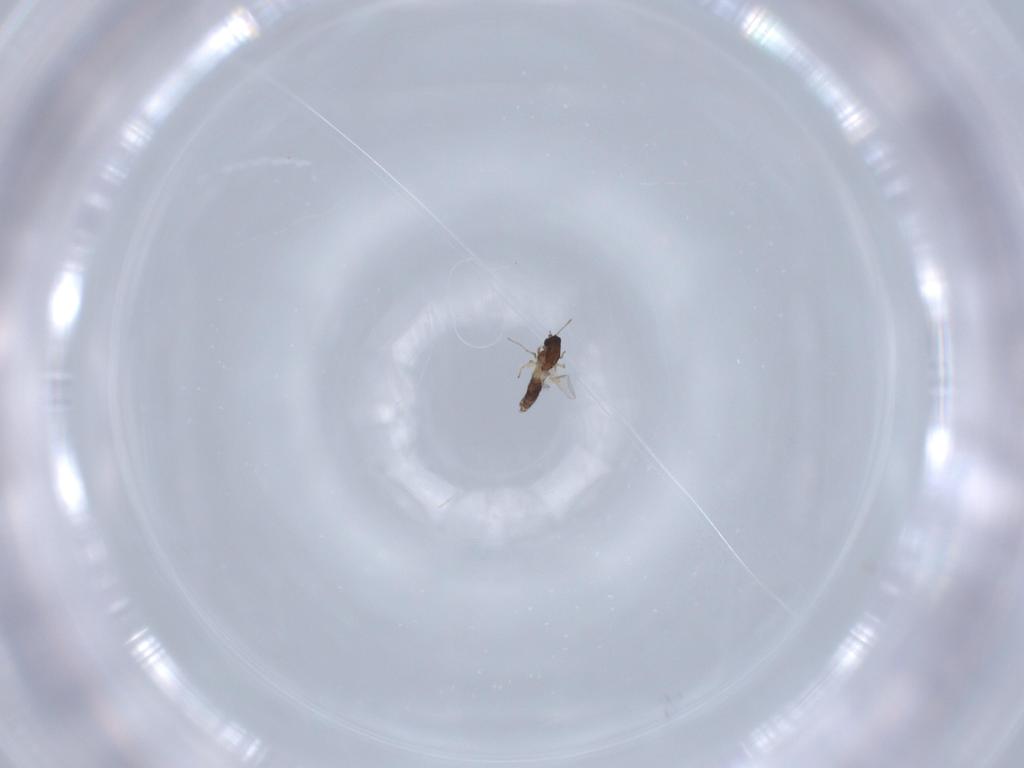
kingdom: Animalia
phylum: Arthropoda
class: Insecta
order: Diptera
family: Chironomidae
